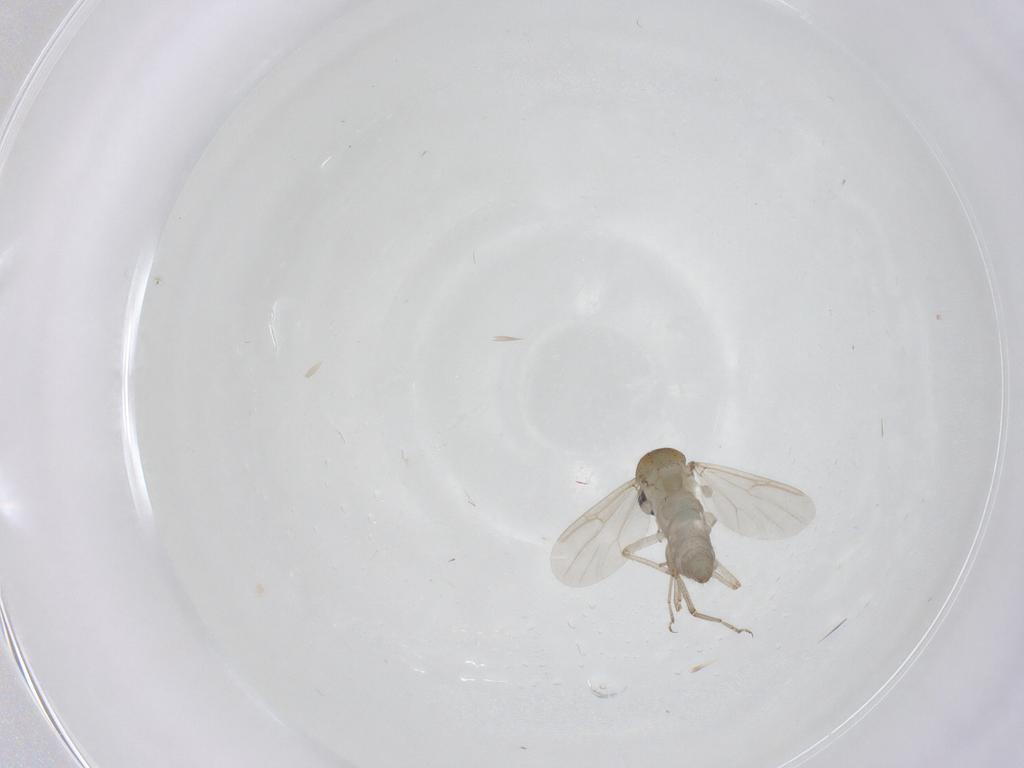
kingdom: Animalia
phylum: Arthropoda
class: Insecta
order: Diptera
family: Ceratopogonidae
